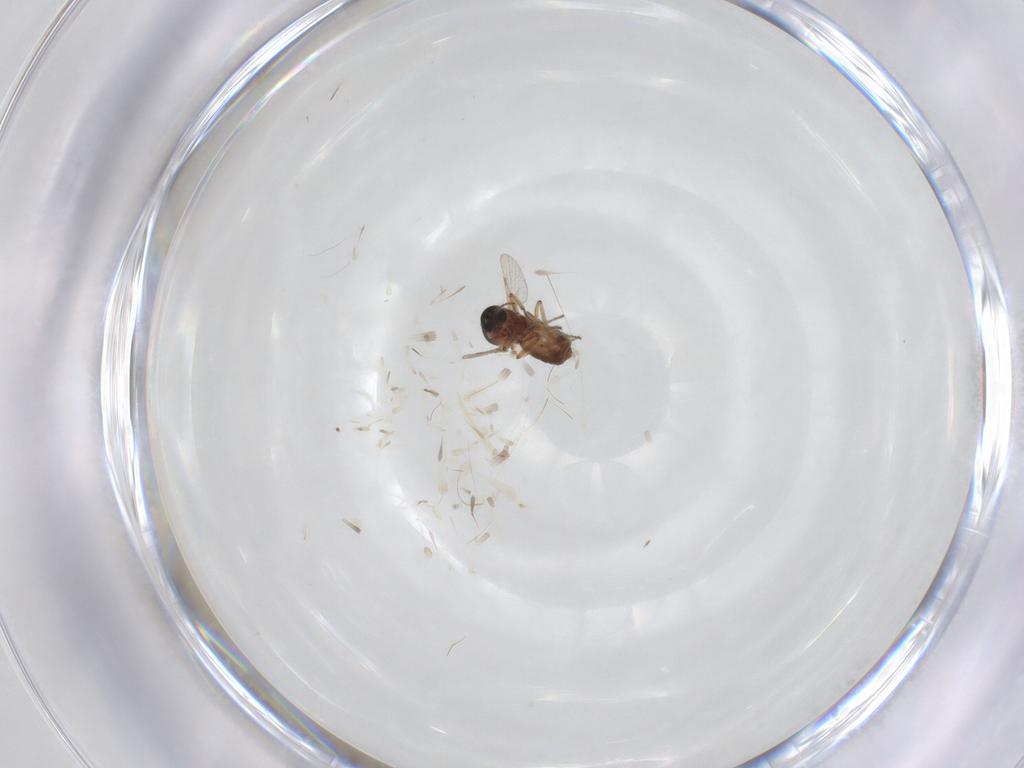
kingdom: Animalia
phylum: Arthropoda
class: Insecta
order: Diptera
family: Ceratopogonidae
